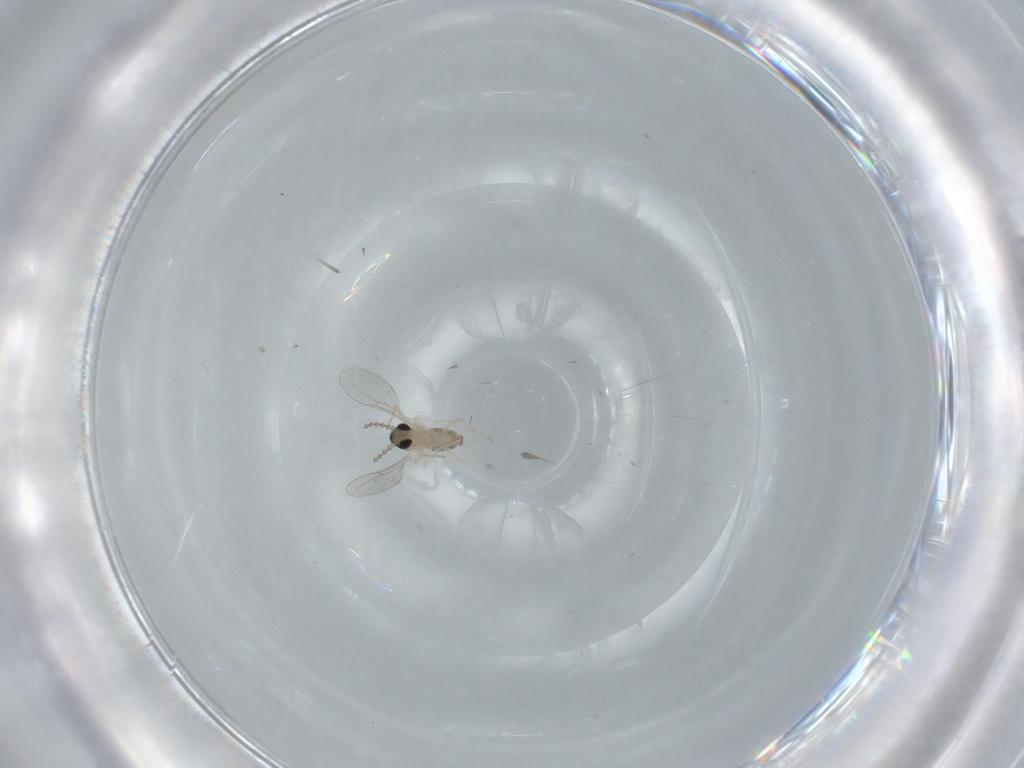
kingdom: Animalia
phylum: Arthropoda
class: Insecta
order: Diptera
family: Cecidomyiidae
